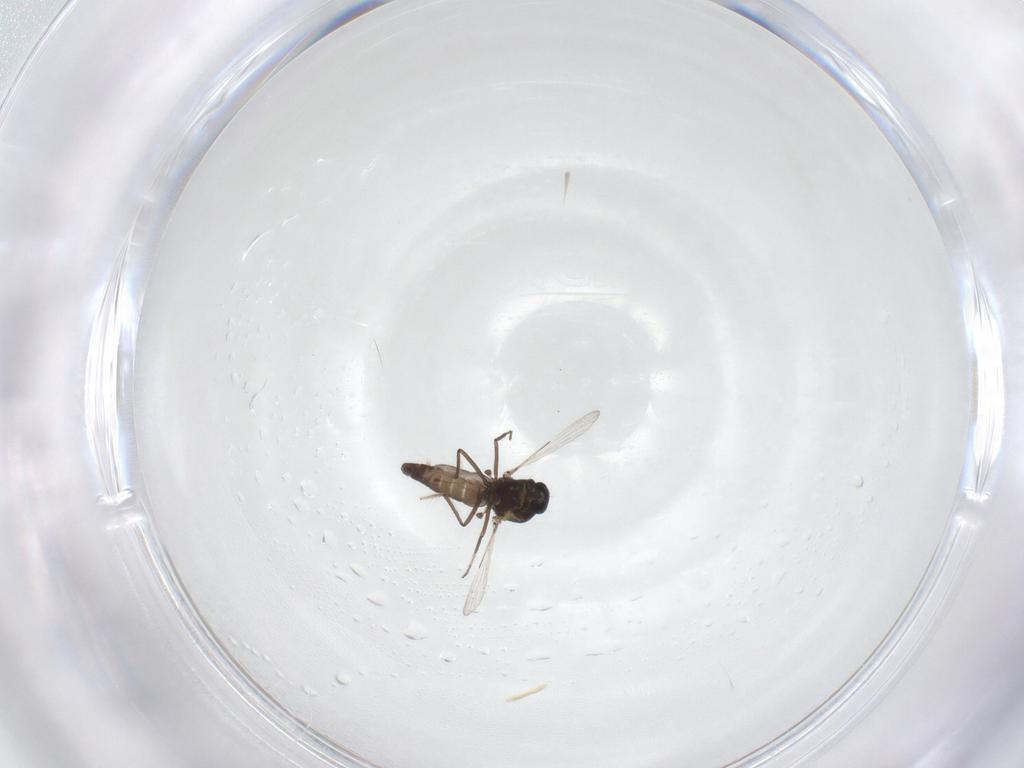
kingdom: Animalia
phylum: Arthropoda
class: Insecta
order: Diptera
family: Ceratopogonidae
